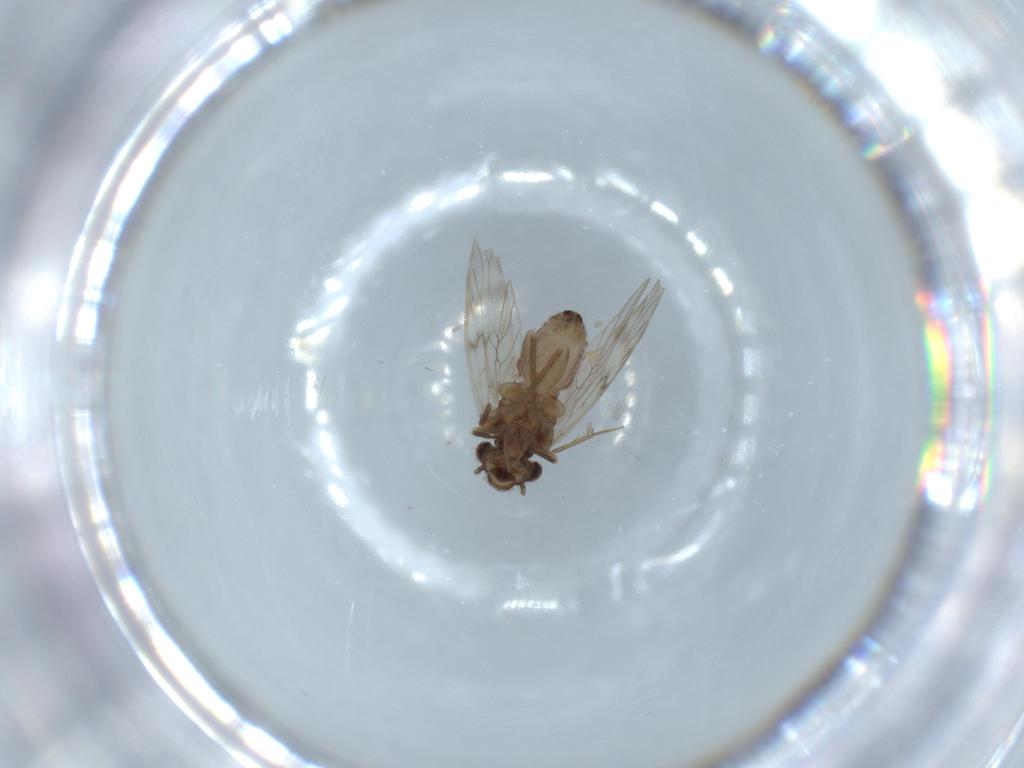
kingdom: Animalia
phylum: Arthropoda
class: Insecta
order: Psocodea
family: Lepidopsocidae
